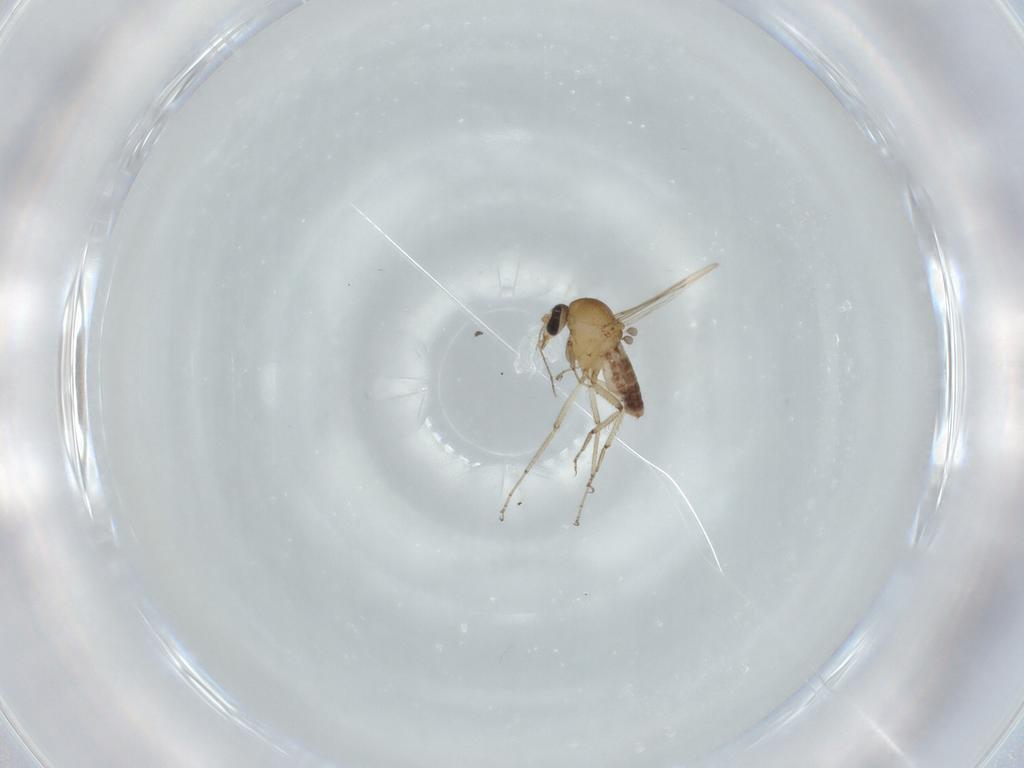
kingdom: Animalia
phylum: Arthropoda
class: Insecta
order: Diptera
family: Ceratopogonidae
